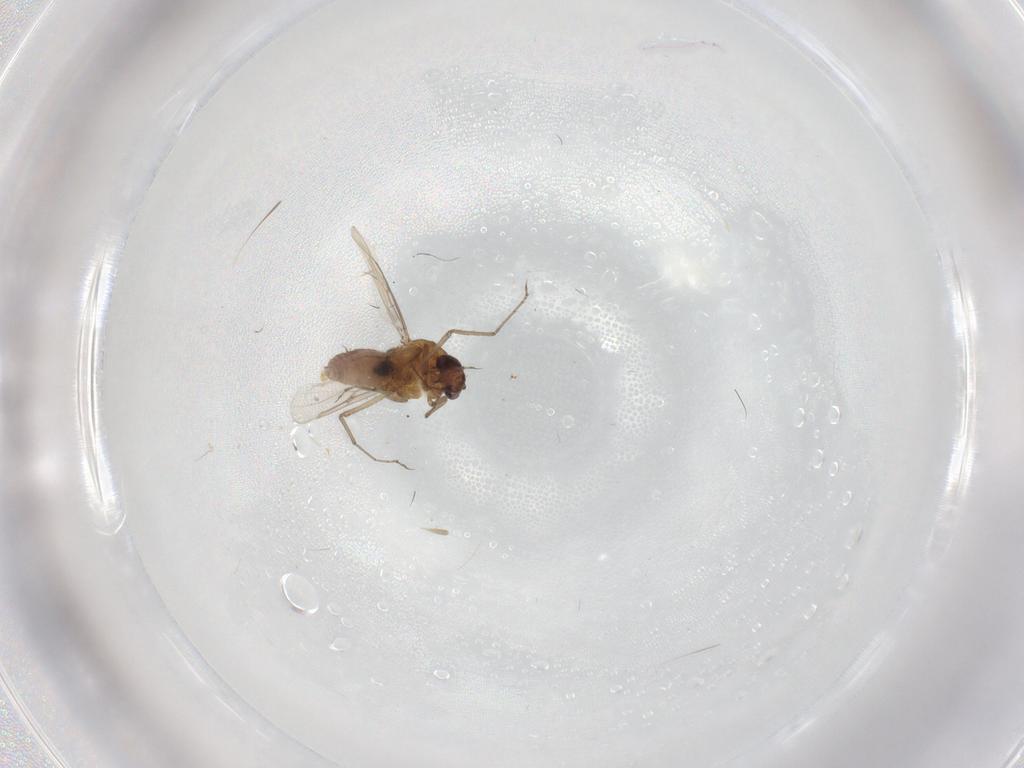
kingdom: Animalia
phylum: Arthropoda
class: Insecta
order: Diptera
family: Ceratopogonidae
